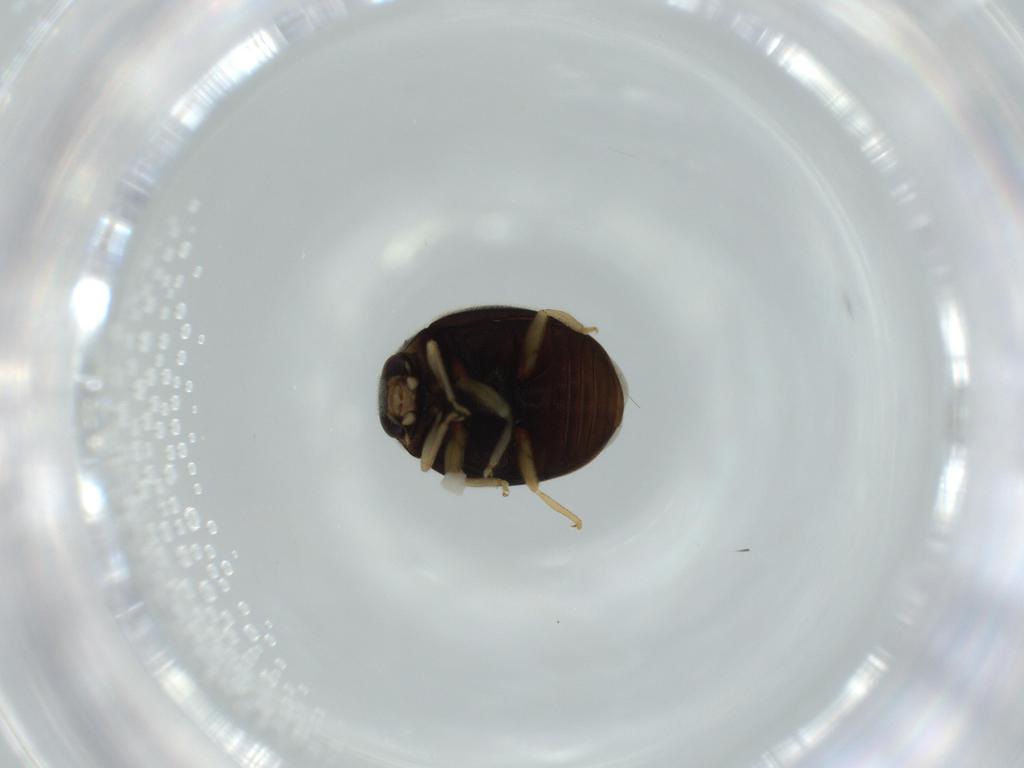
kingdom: Animalia
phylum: Arthropoda
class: Insecta
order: Coleoptera
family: Coccinellidae
